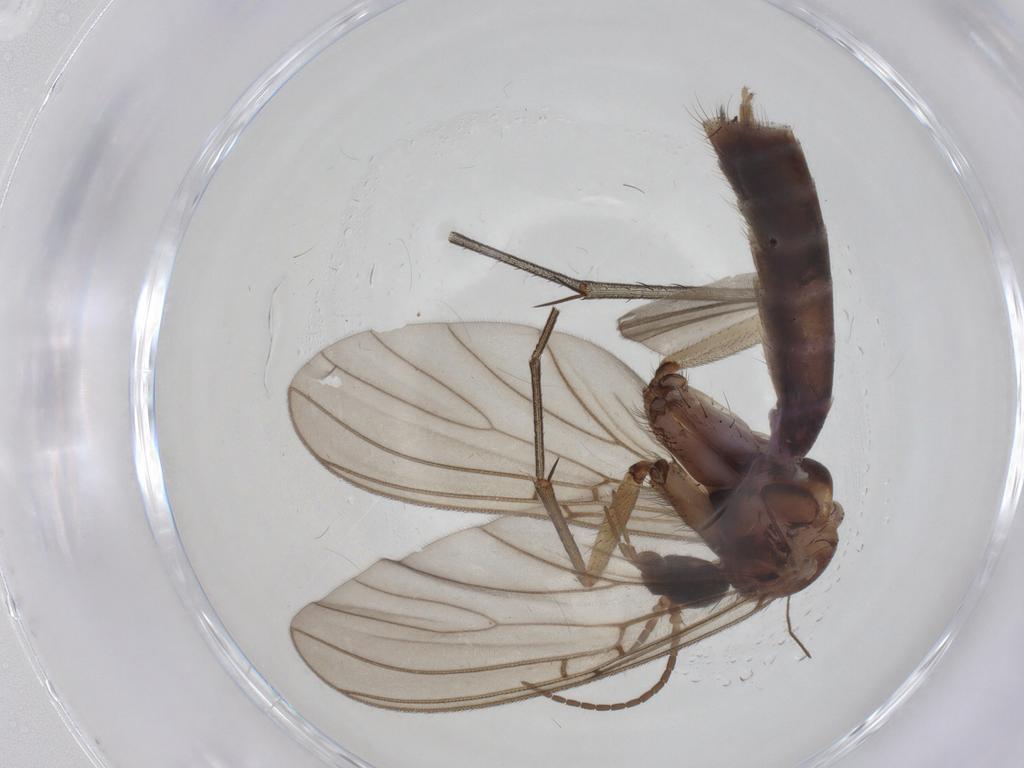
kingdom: Animalia
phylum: Arthropoda
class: Insecta
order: Diptera
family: Mycetophilidae
